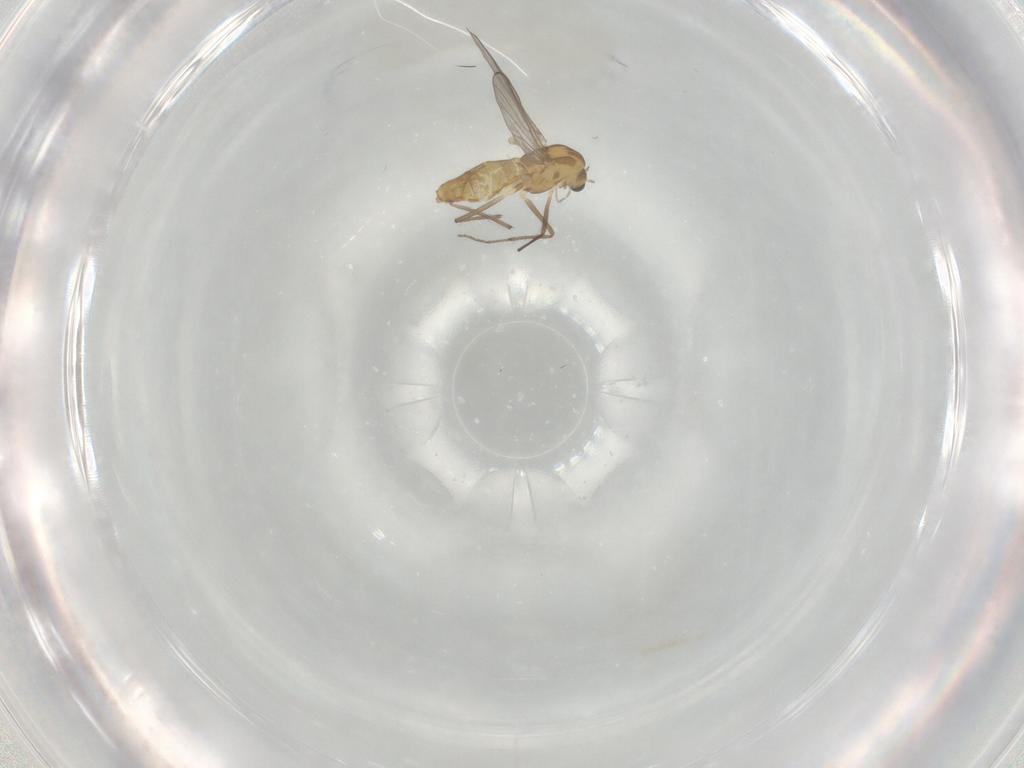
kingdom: Animalia
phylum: Arthropoda
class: Insecta
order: Diptera
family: Chironomidae
